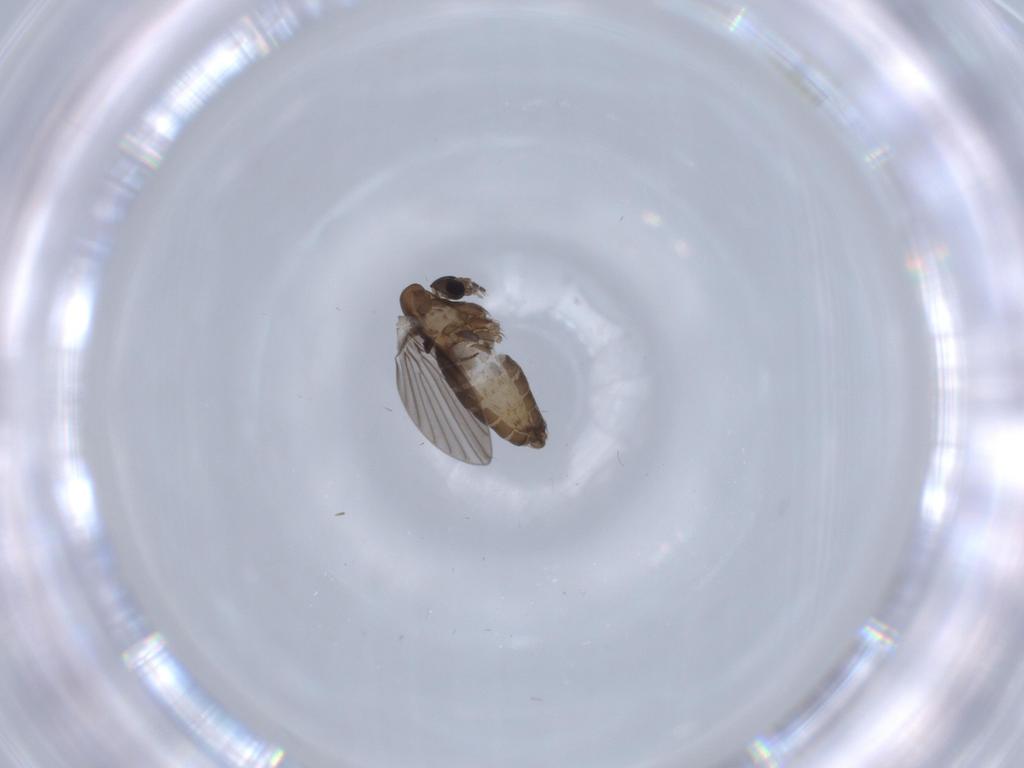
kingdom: Animalia
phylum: Arthropoda
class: Insecta
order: Diptera
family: Psychodidae
